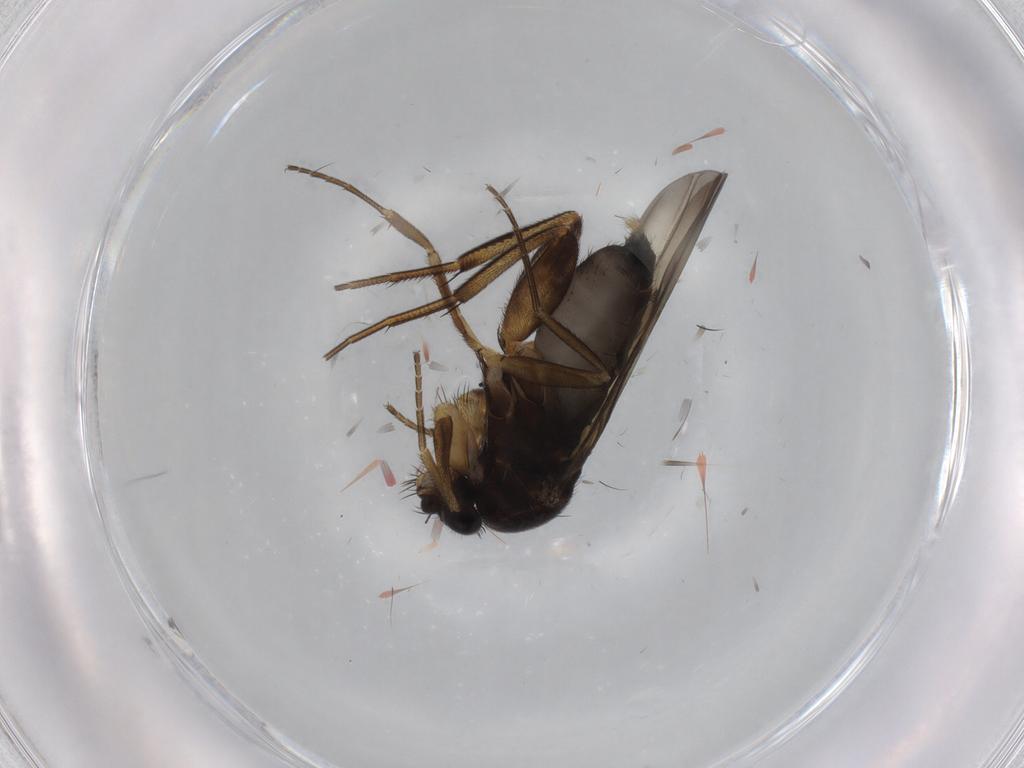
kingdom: Animalia
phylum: Arthropoda
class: Insecta
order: Diptera
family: Phoridae
